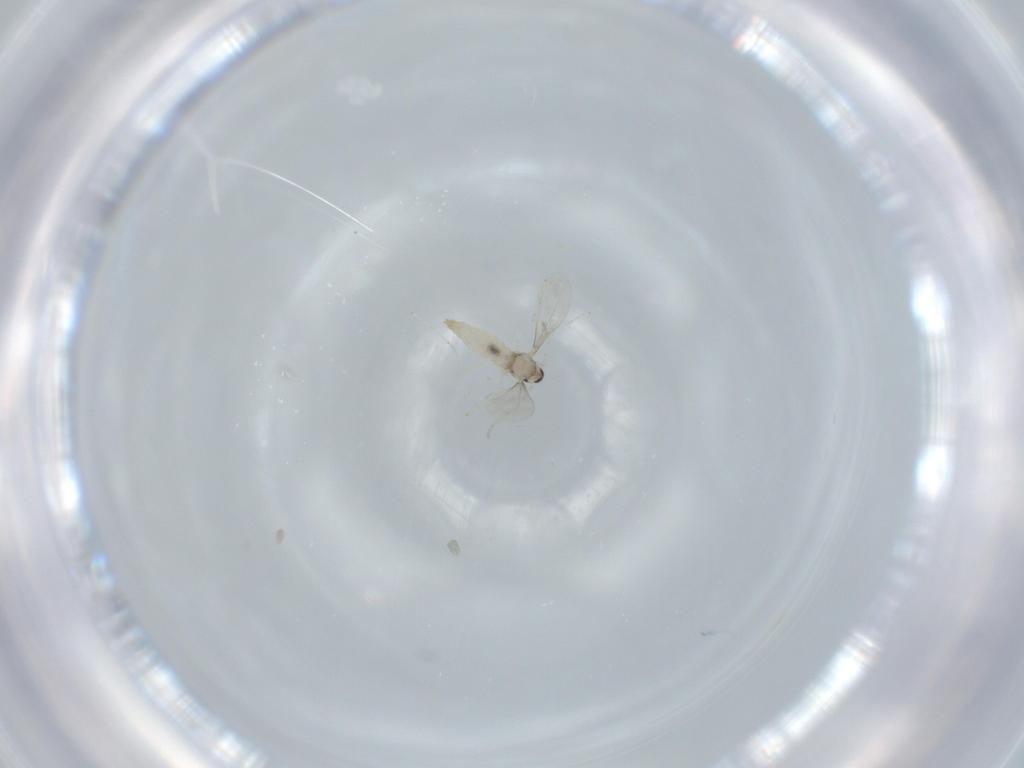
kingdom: Animalia
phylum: Arthropoda
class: Insecta
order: Diptera
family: Cecidomyiidae
